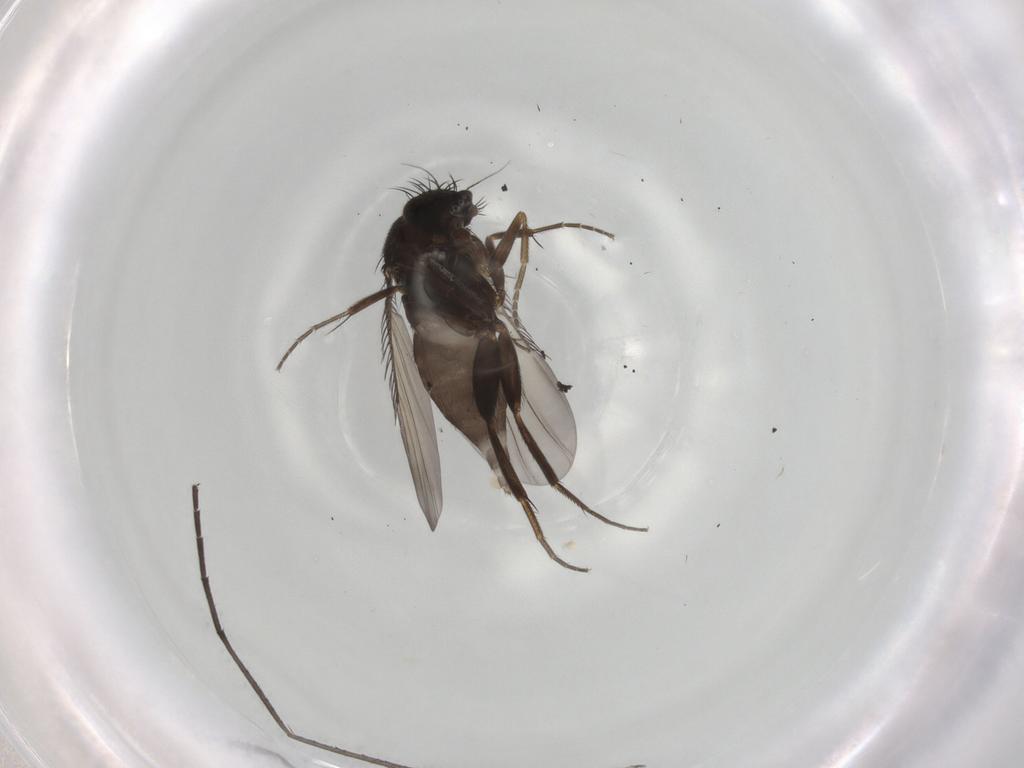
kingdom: Animalia
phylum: Arthropoda
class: Insecta
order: Diptera
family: Phoridae
